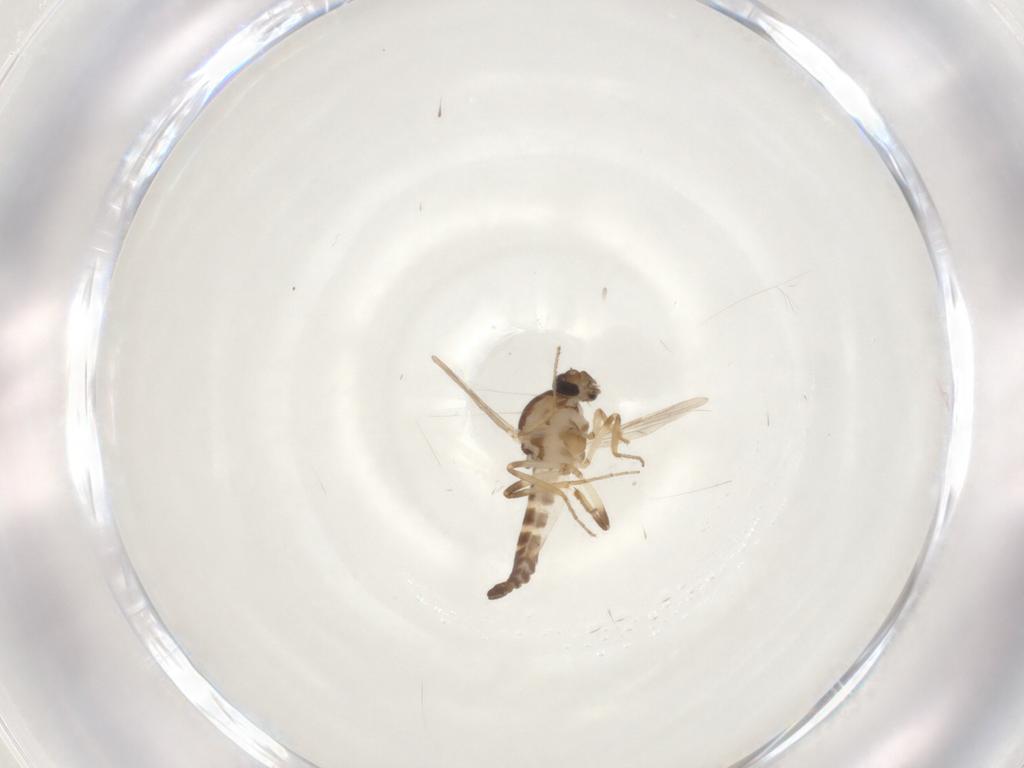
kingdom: Animalia
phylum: Arthropoda
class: Insecta
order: Diptera
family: Ceratopogonidae
